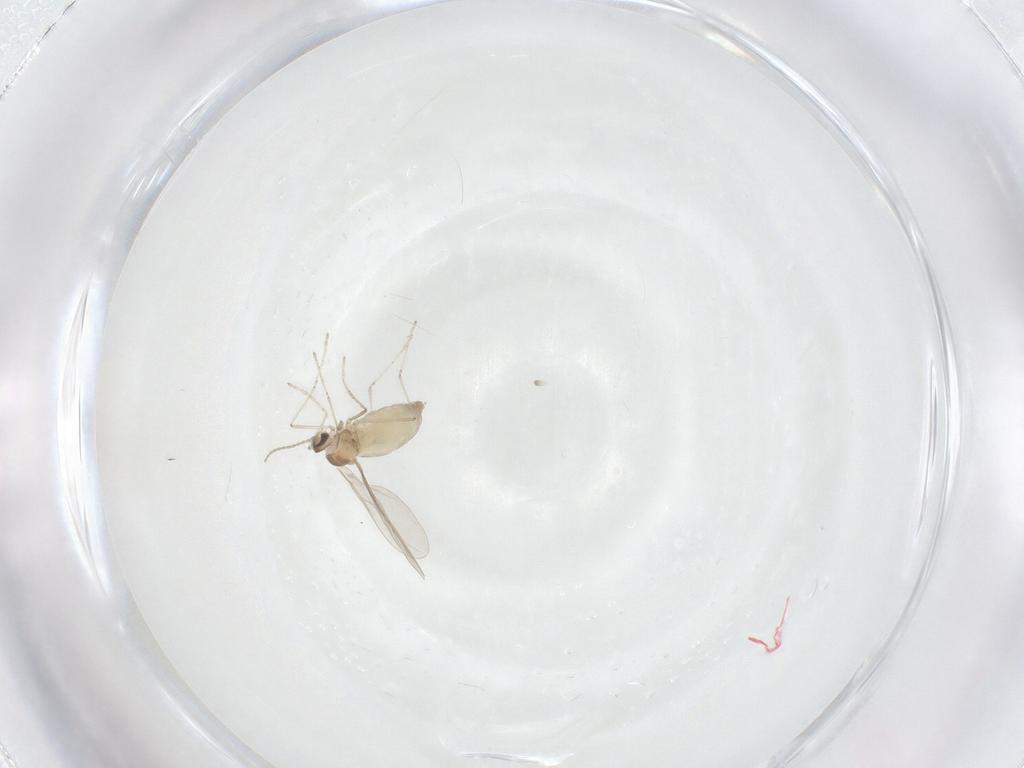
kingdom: Animalia
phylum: Arthropoda
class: Insecta
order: Diptera
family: Cecidomyiidae
